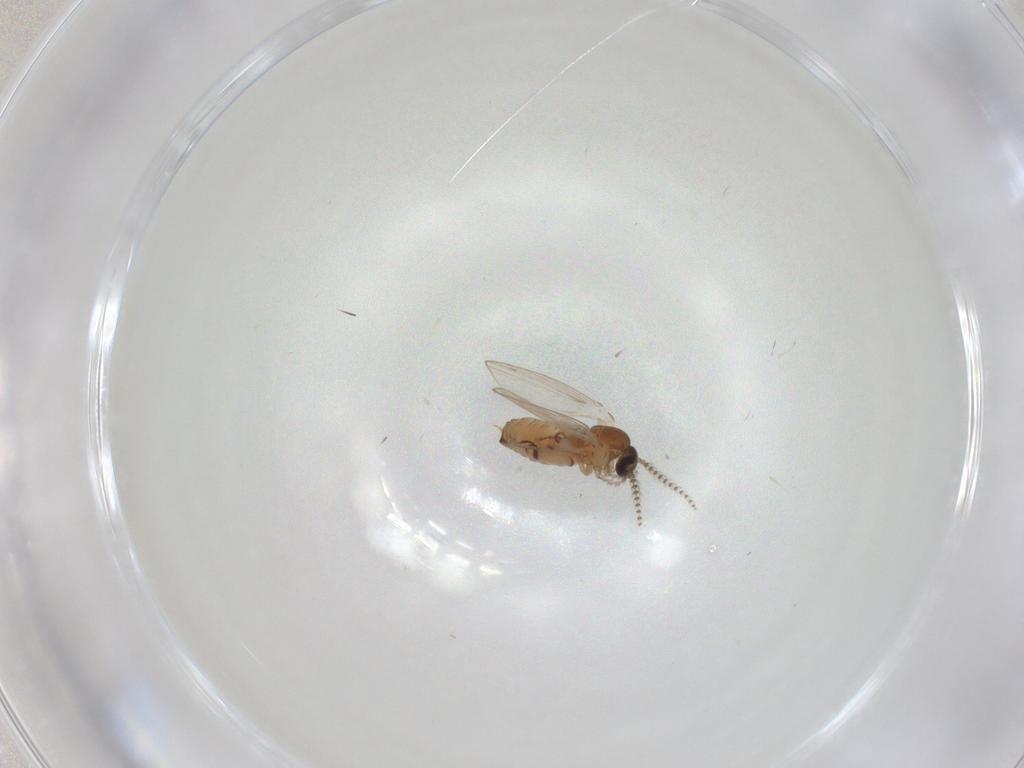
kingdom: Animalia
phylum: Arthropoda
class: Insecta
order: Diptera
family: Psychodidae
